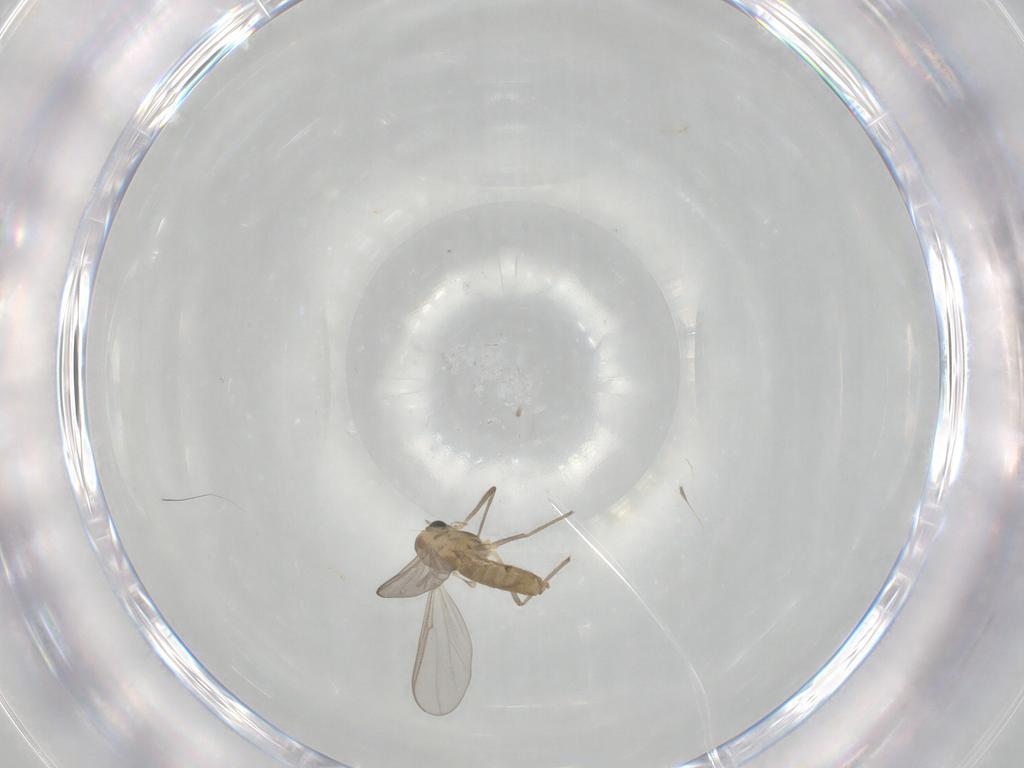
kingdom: Animalia
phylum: Arthropoda
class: Insecta
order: Diptera
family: Chironomidae
